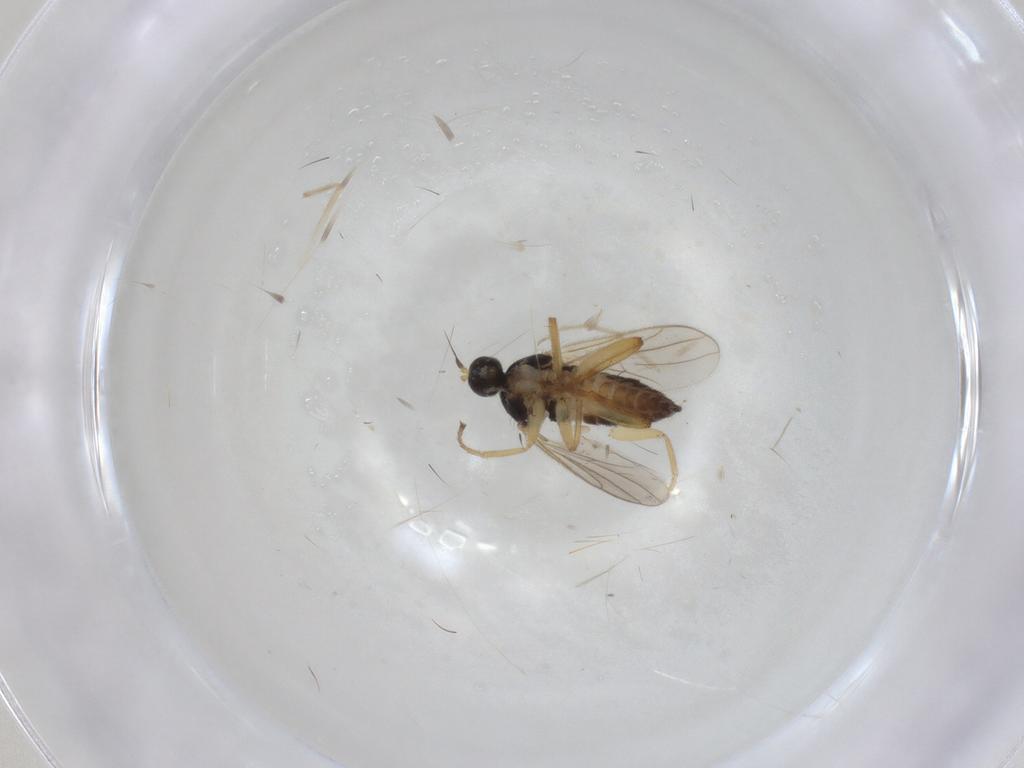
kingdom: Animalia
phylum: Arthropoda
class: Insecta
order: Diptera
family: Hybotidae
